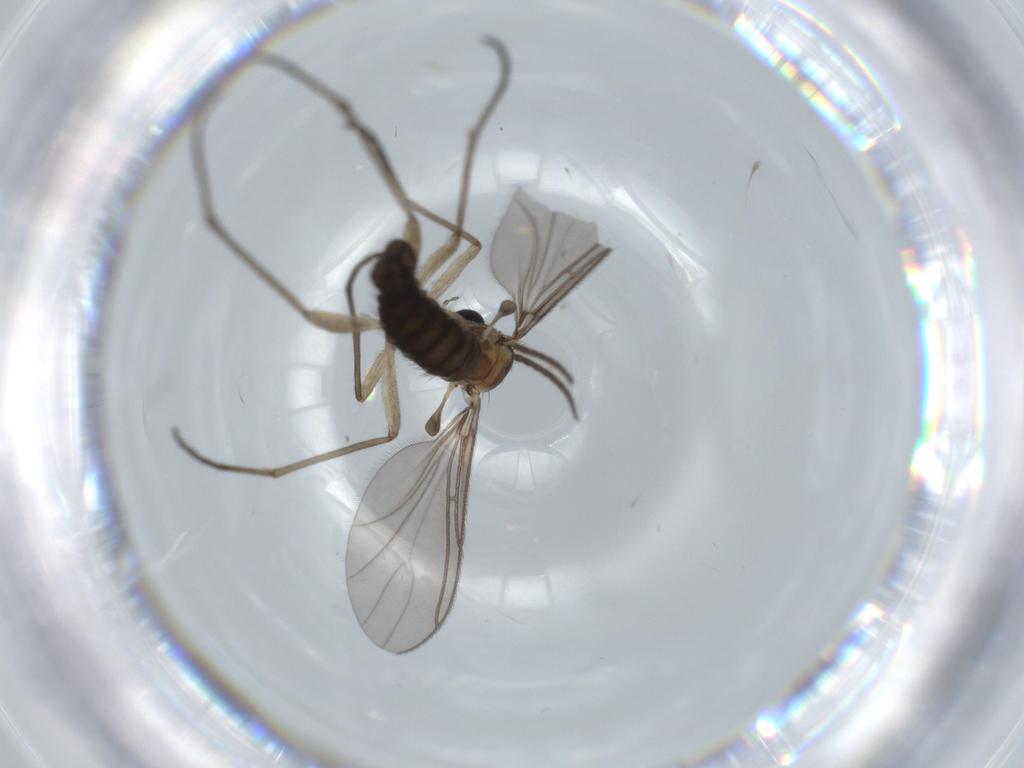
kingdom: Animalia
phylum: Arthropoda
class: Insecta
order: Diptera
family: Sciaridae
